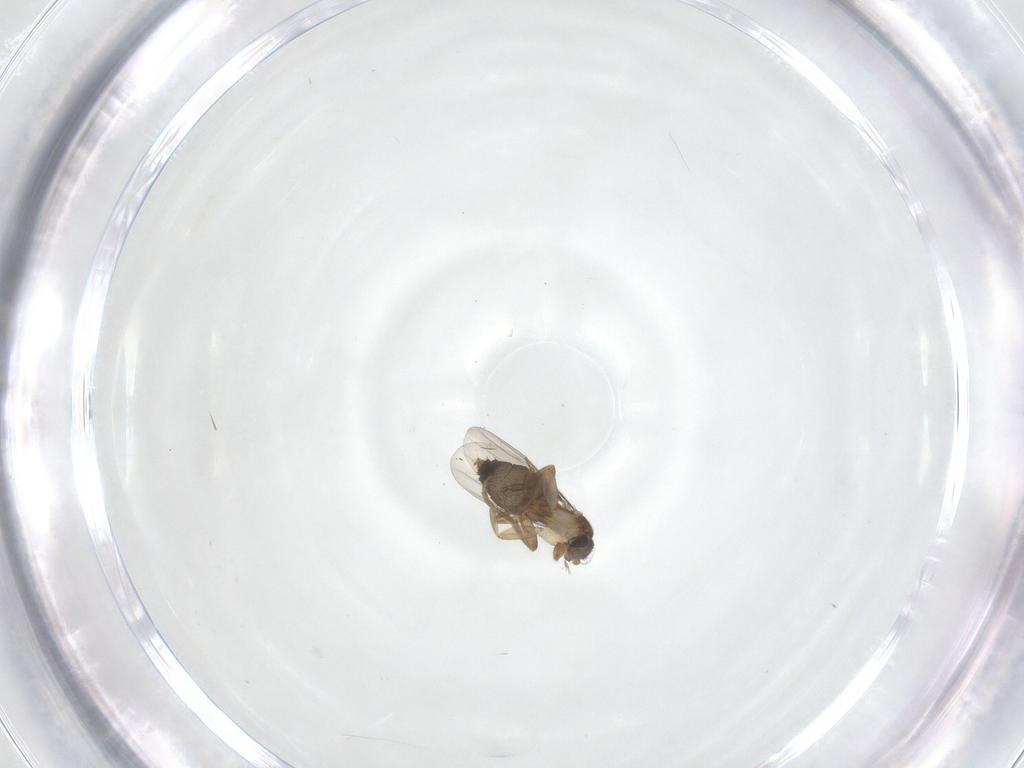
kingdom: Animalia
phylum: Arthropoda
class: Insecta
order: Diptera
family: Phoridae
